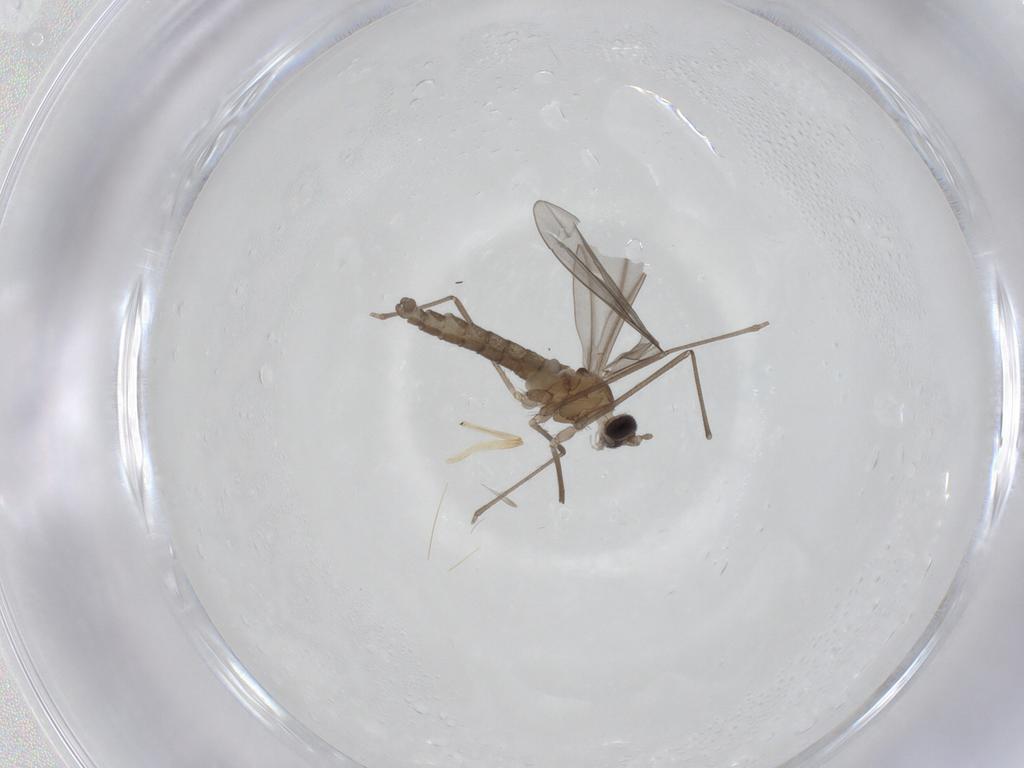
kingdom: Animalia
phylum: Arthropoda
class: Insecta
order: Diptera
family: Cecidomyiidae
